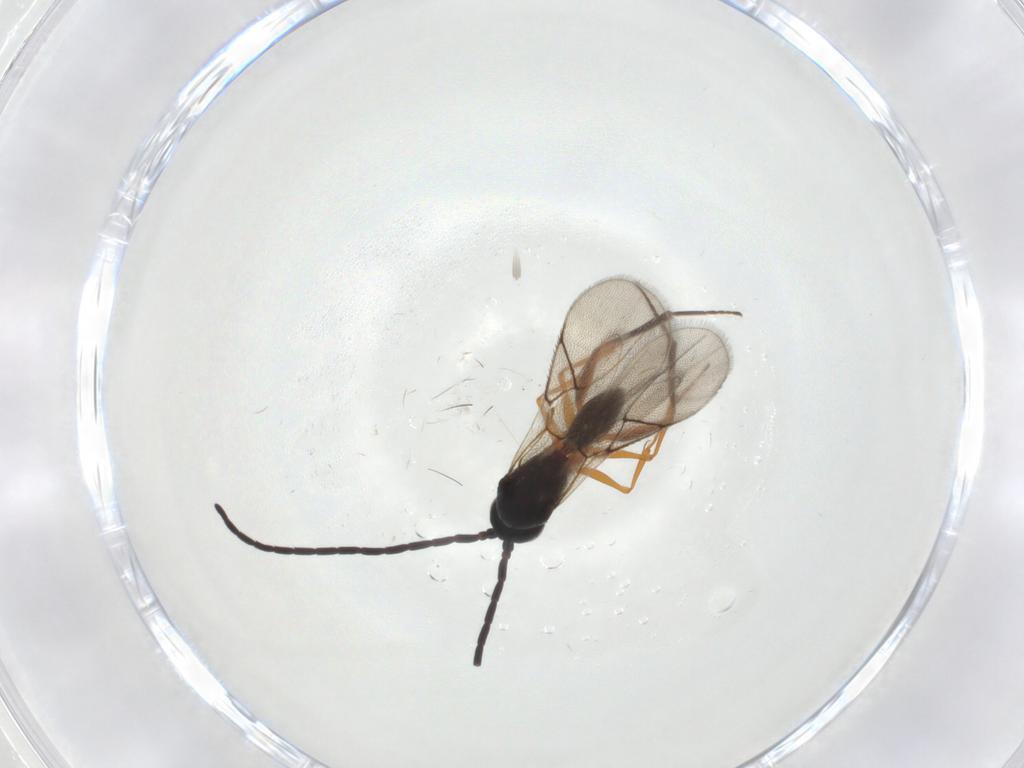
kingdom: Animalia
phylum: Arthropoda
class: Insecta
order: Hymenoptera
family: Figitidae
